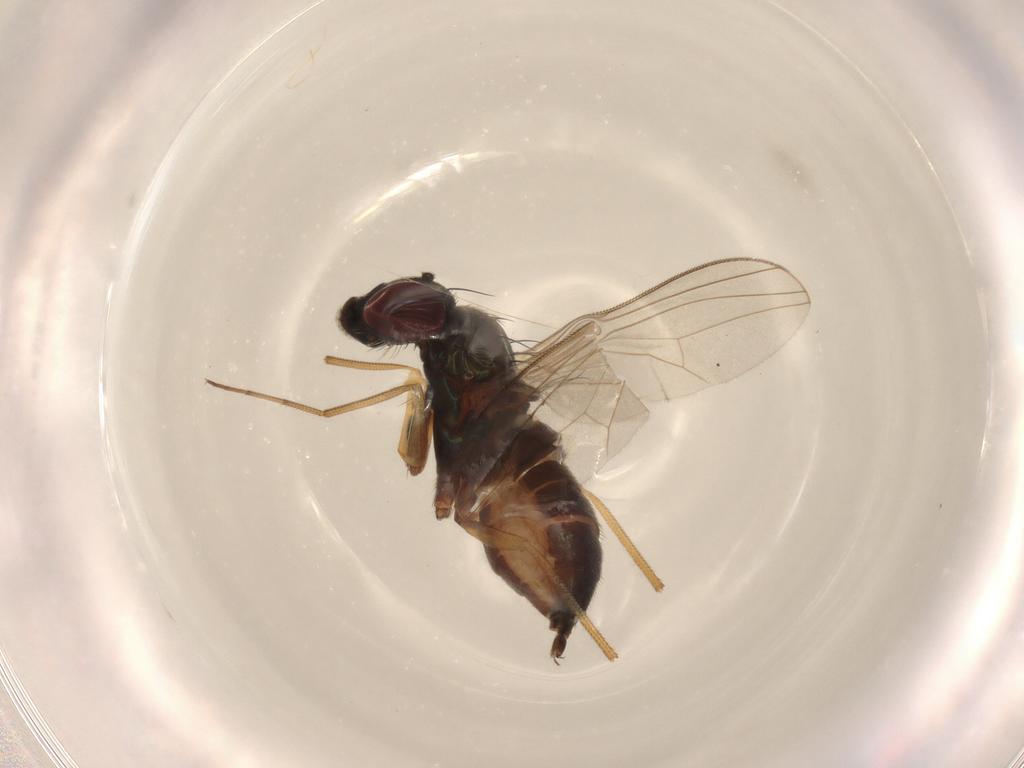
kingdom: Animalia
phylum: Arthropoda
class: Insecta
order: Diptera
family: Dolichopodidae
